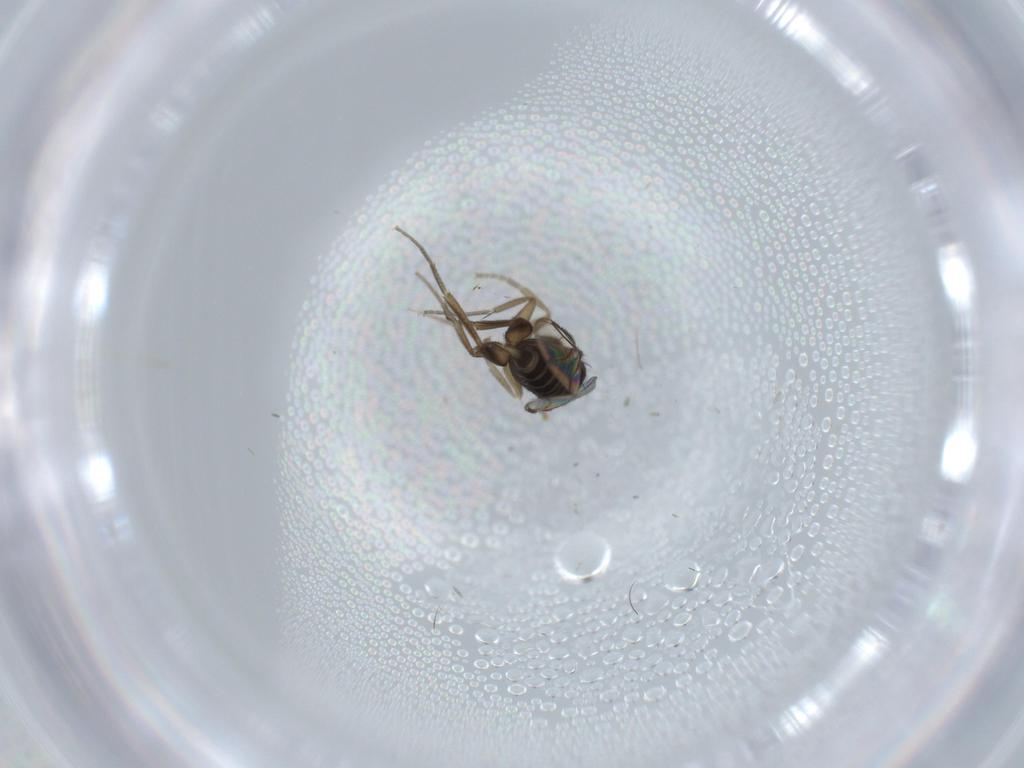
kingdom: Animalia
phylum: Arthropoda
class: Insecta
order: Diptera
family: Phoridae
